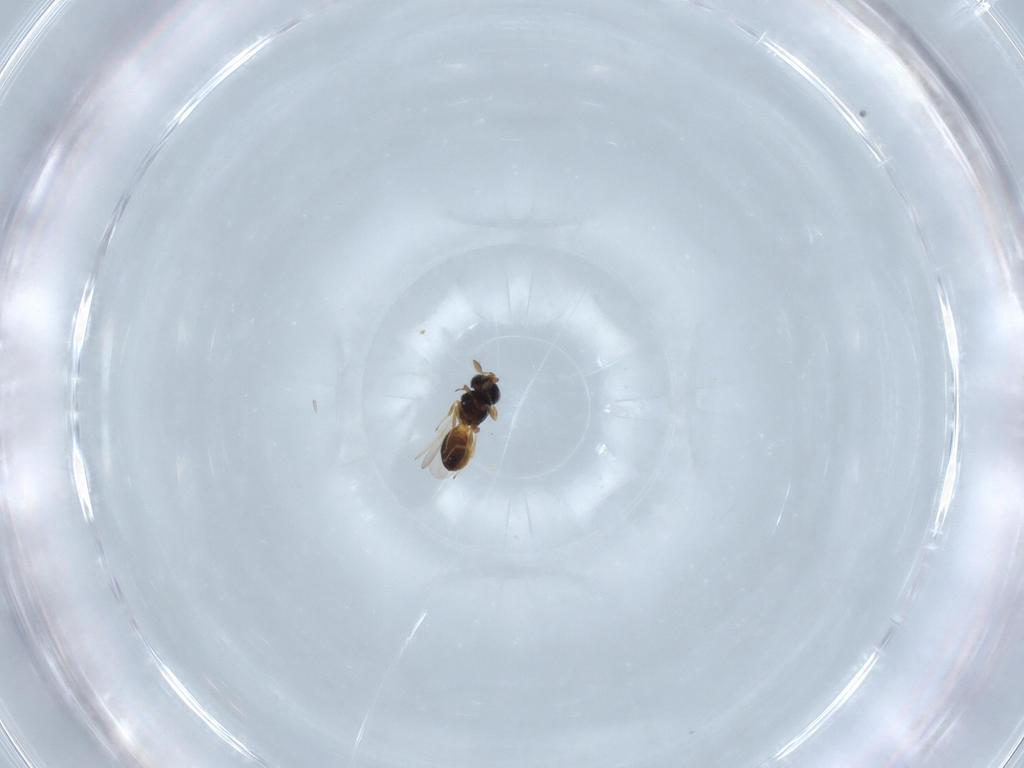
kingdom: Animalia
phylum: Arthropoda
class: Insecta
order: Hymenoptera
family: Scelionidae
